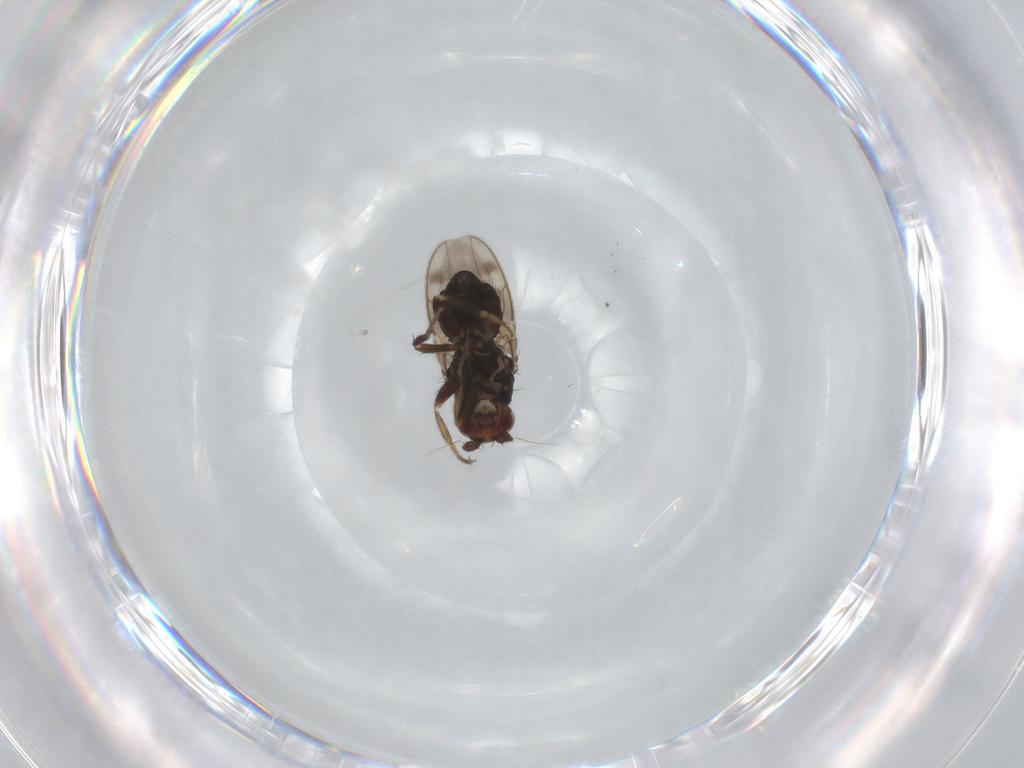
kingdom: Animalia
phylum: Arthropoda
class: Insecta
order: Diptera
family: Sphaeroceridae
